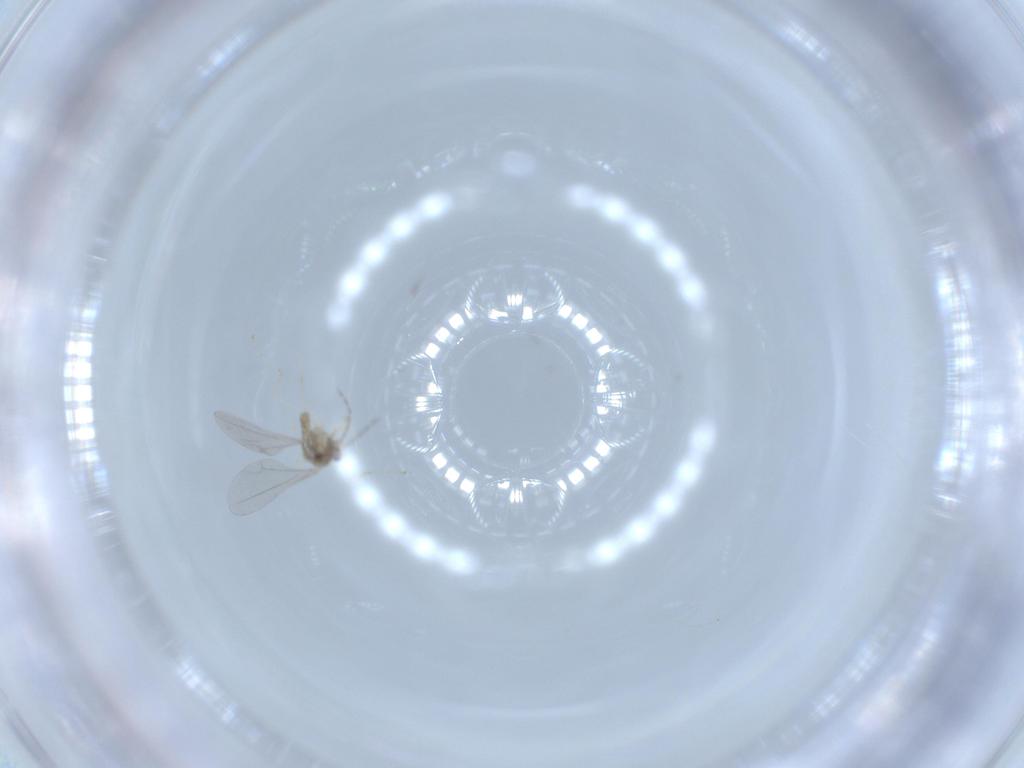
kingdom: Animalia
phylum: Arthropoda
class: Insecta
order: Diptera
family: Cecidomyiidae
